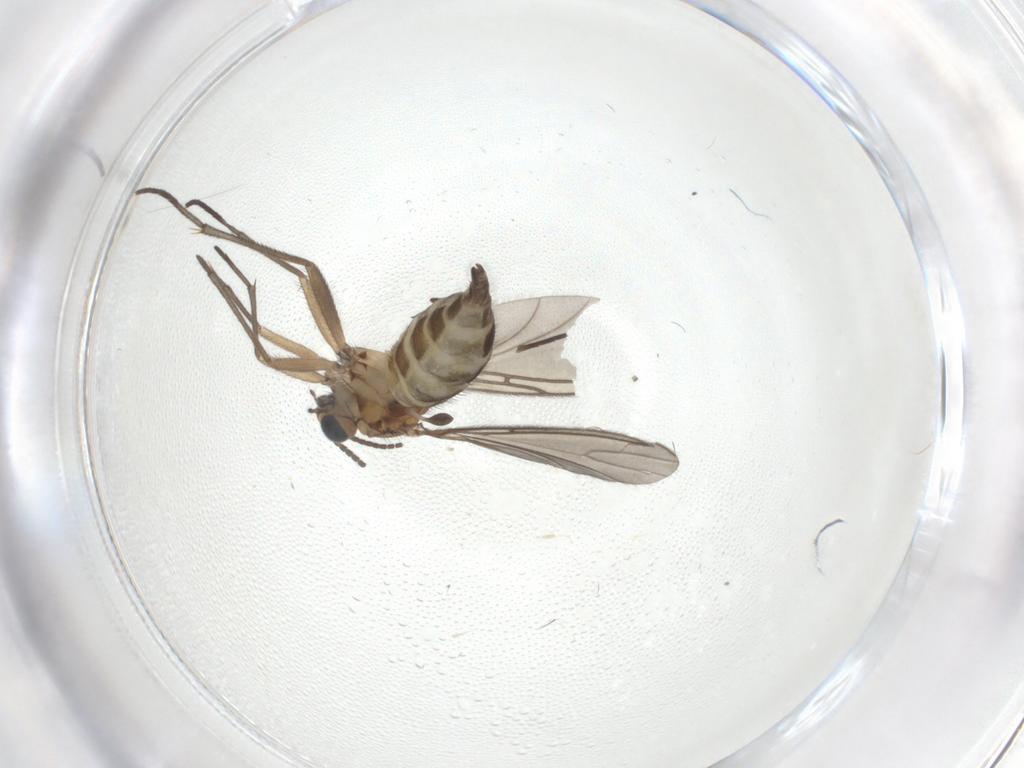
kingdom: Animalia
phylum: Arthropoda
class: Insecta
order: Diptera
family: Sciaridae
